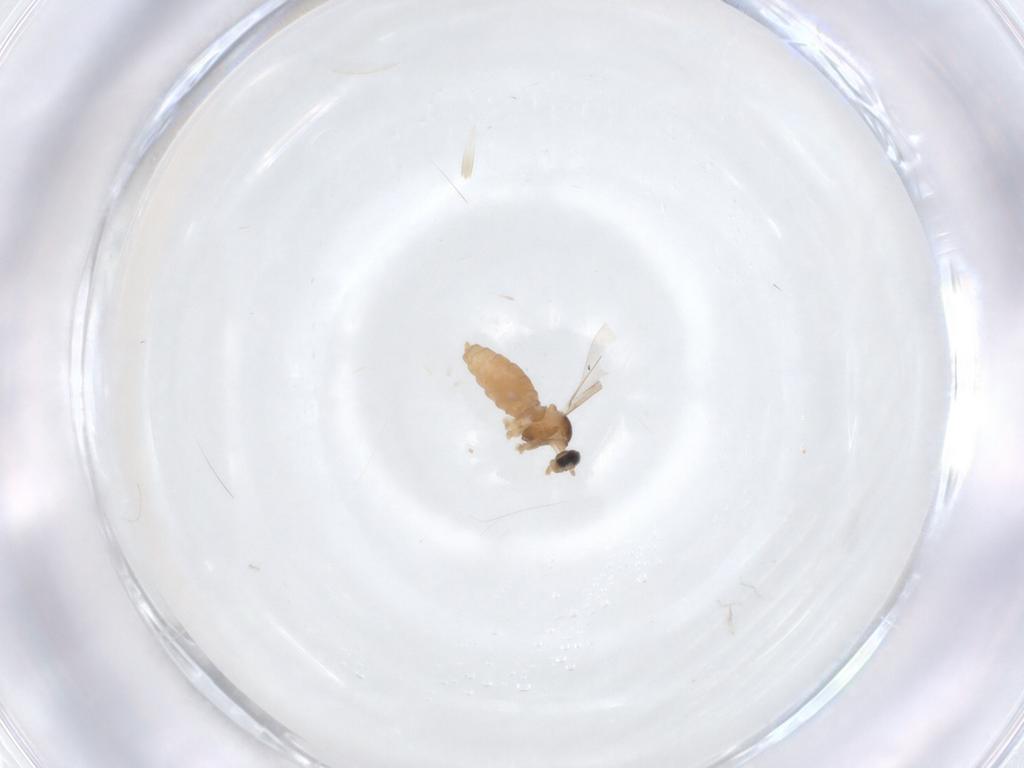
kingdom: Animalia
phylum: Arthropoda
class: Insecta
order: Diptera
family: Cecidomyiidae
